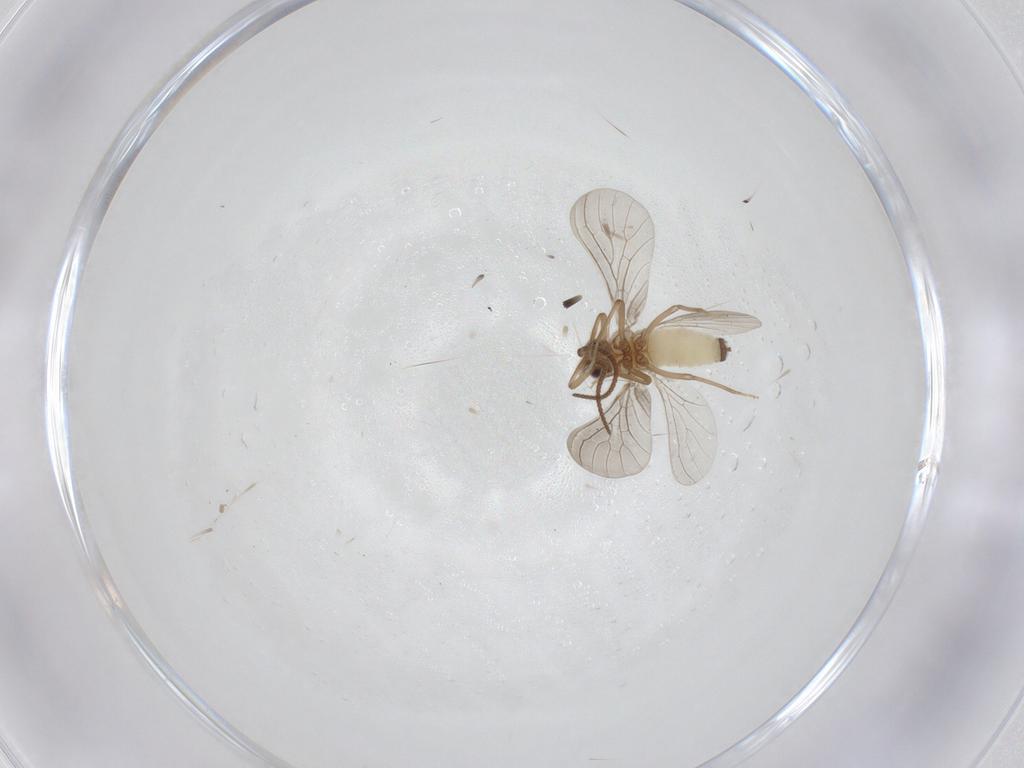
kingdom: Animalia
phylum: Arthropoda
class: Insecta
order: Neuroptera
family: Coniopterygidae
